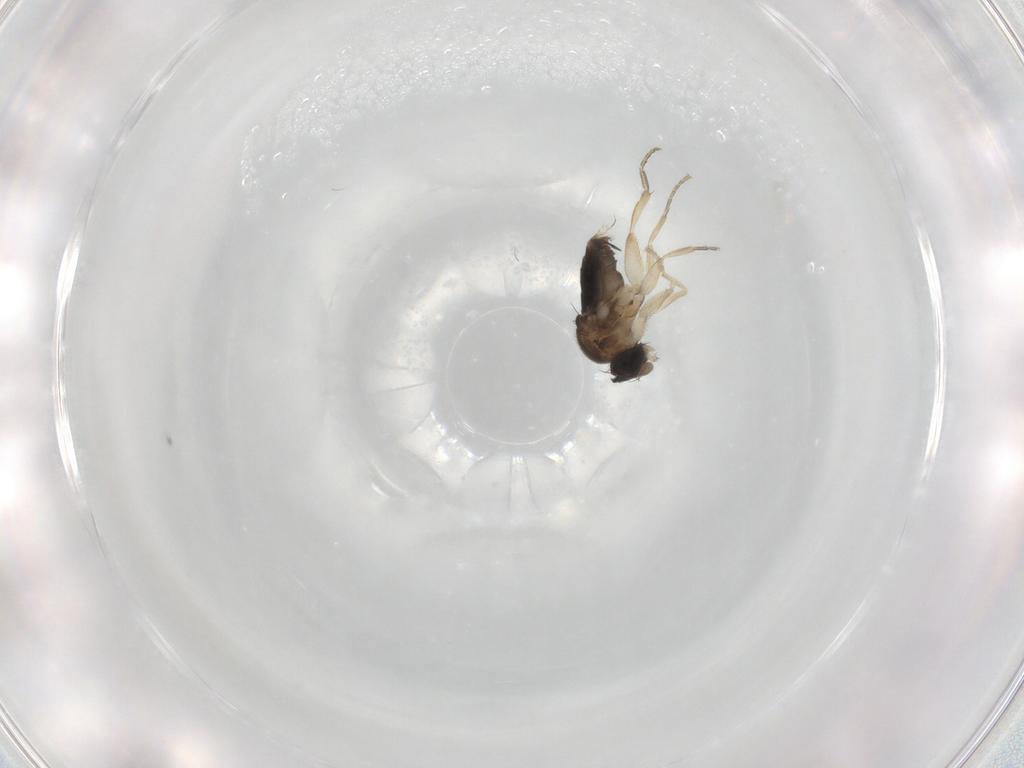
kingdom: Animalia
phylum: Arthropoda
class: Insecta
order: Diptera
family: Phoridae
